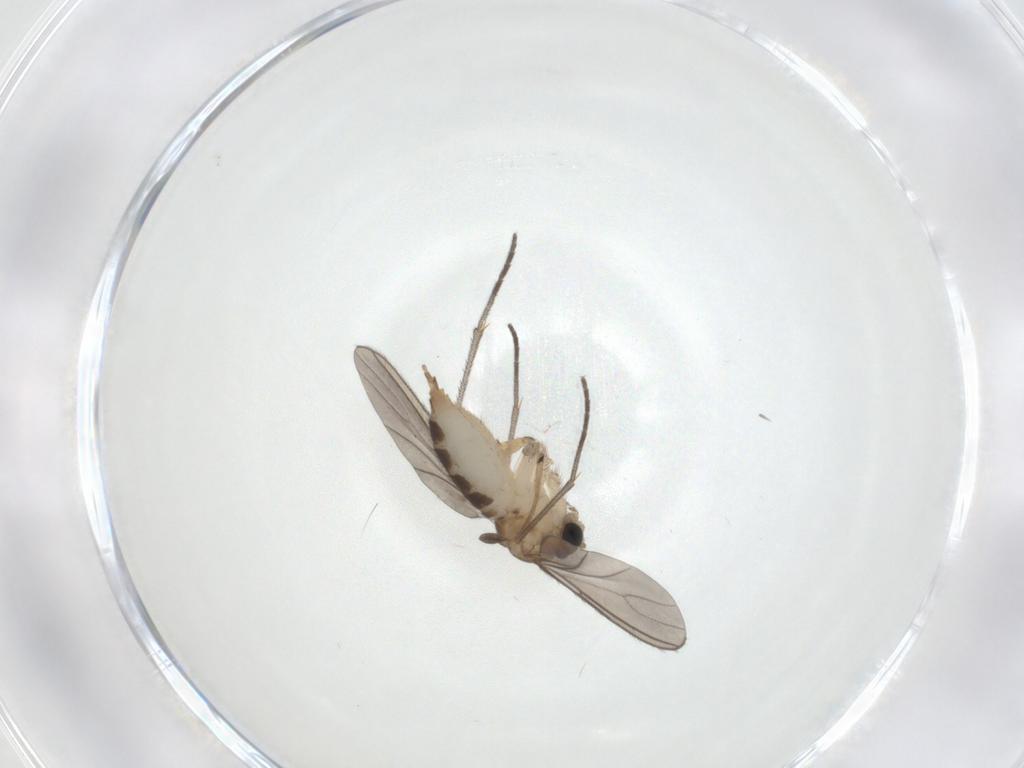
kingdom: Animalia
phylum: Arthropoda
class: Insecta
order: Diptera
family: Sciaridae
